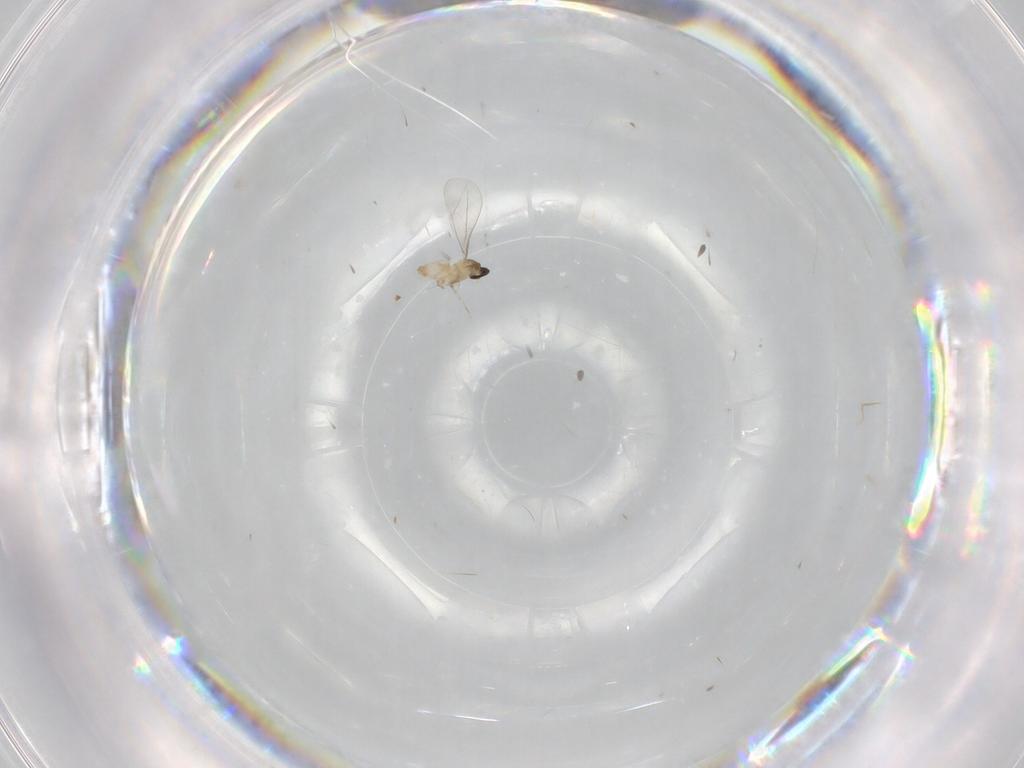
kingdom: Animalia
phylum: Arthropoda
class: Insecta
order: Diptera
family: Cecidomyiidae
